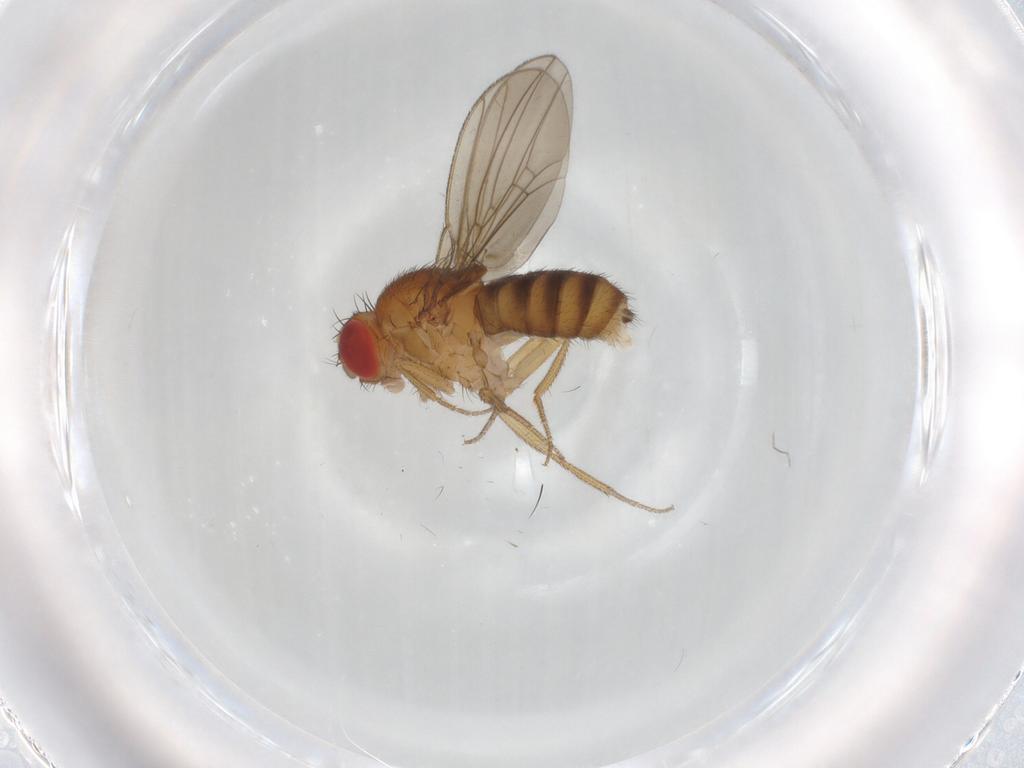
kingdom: Animalia
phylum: Arthropoda
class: Insecta
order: Diptera
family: Drosophilidae
